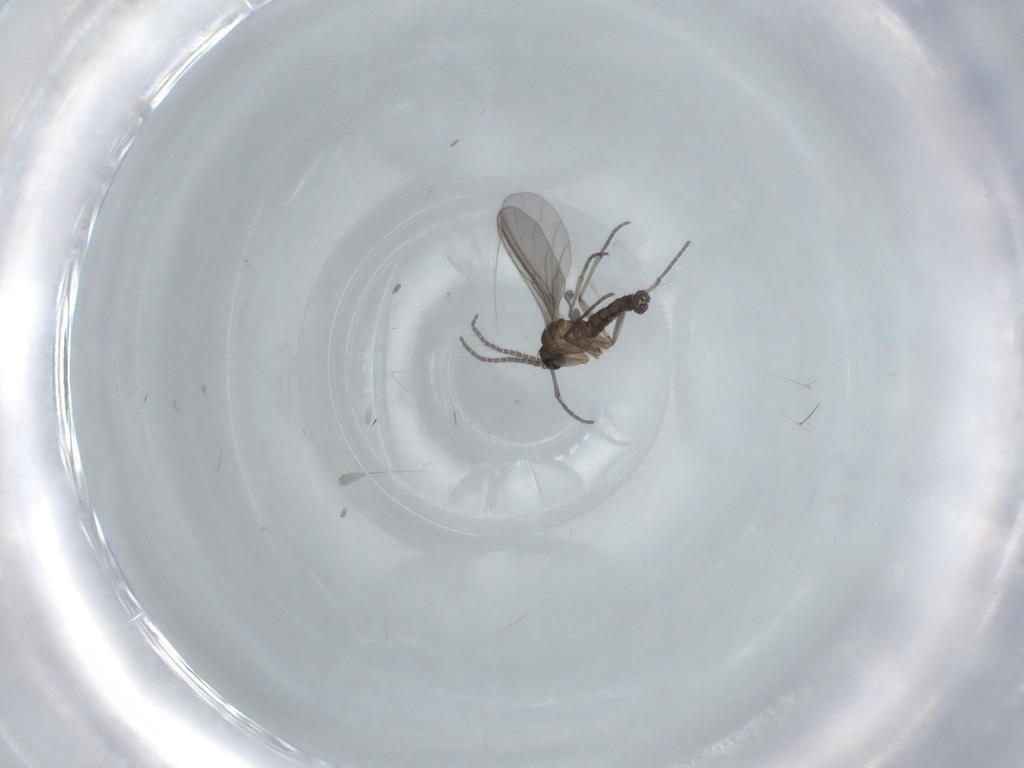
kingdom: Animalia
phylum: Arthropoda
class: Insecta
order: Diptera
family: Sciaridae
